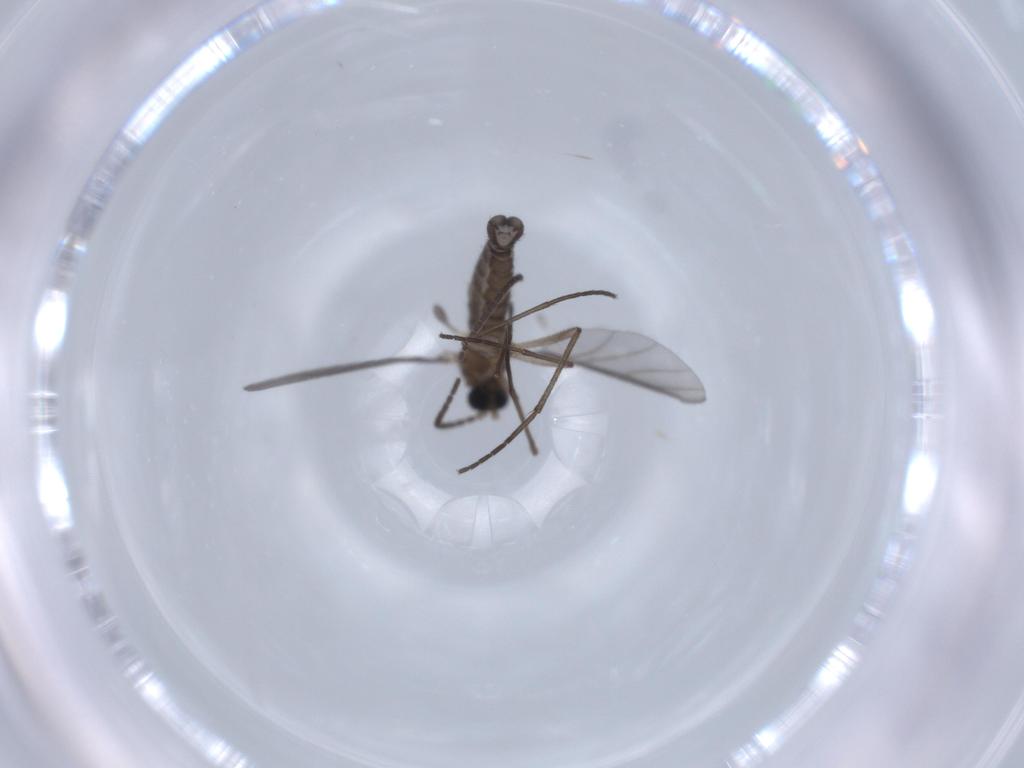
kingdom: Animalia
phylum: Arthropoda
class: Insecta
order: Diptera
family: Sciaridae
